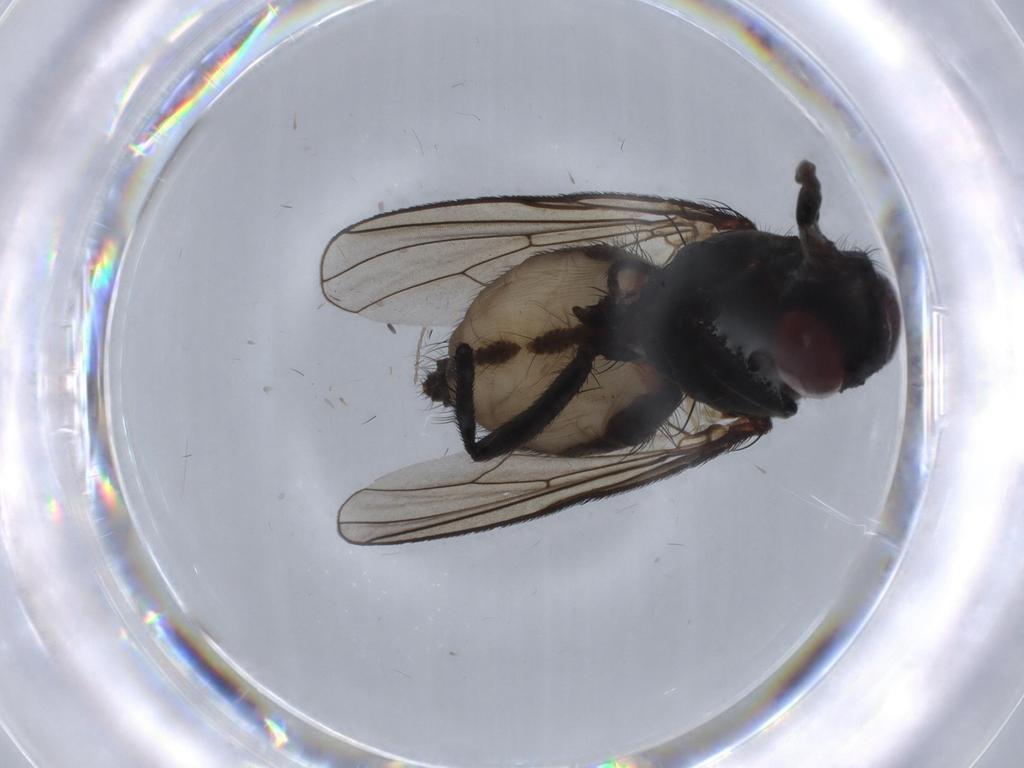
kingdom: Animalia
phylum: Arthropoda
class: Insecta
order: Diptera
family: Anthomyiidae
